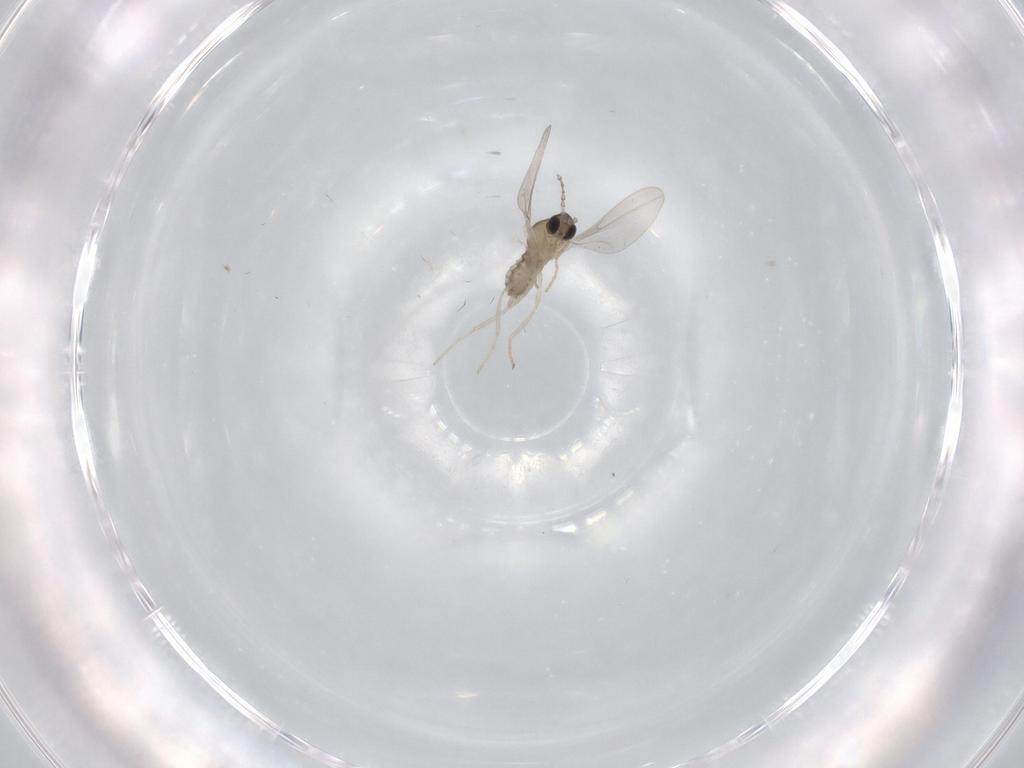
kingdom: Animalia
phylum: Arthropoda
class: Insecta
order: Diptera
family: Cecidomyiidae
